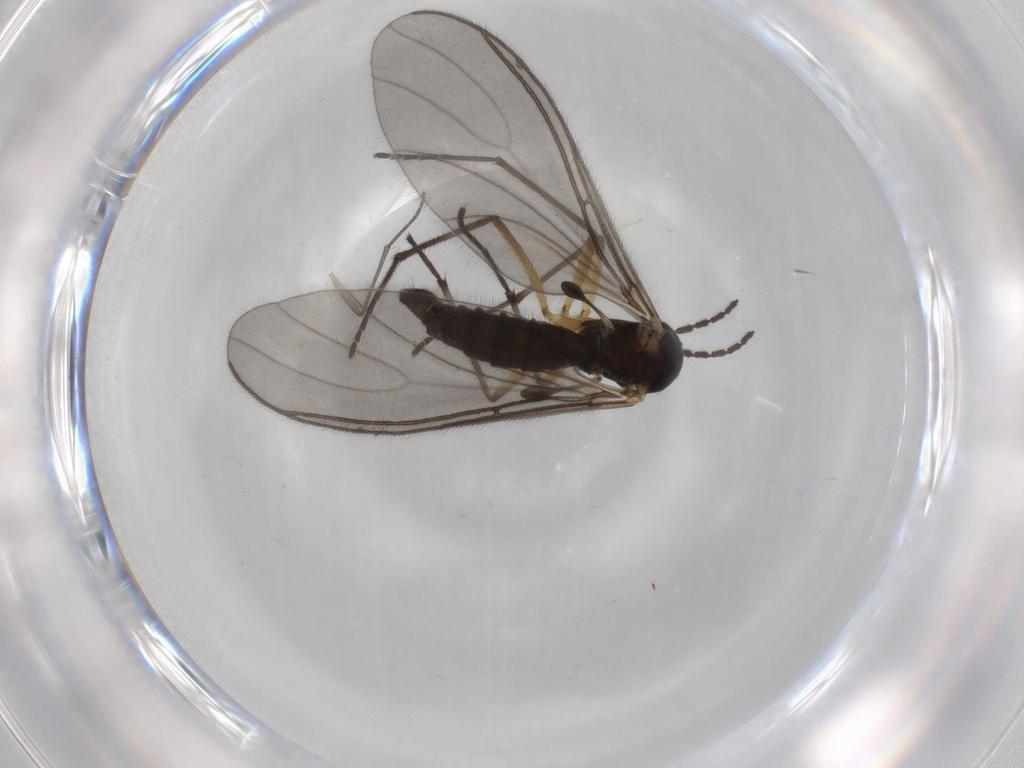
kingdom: Animalia
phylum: Arthropoda
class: Insecta
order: Diptera
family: Sciaridae
